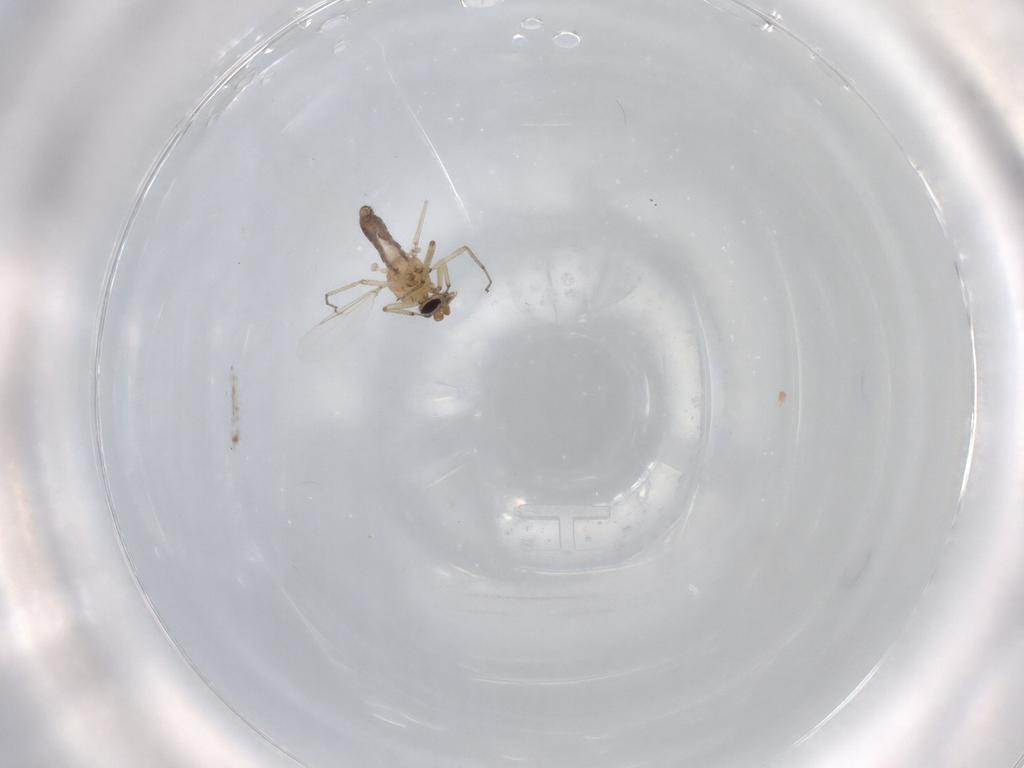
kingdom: Animalia
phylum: Arthropoda
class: Insecta
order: Diptera
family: Ceratopogonidae
